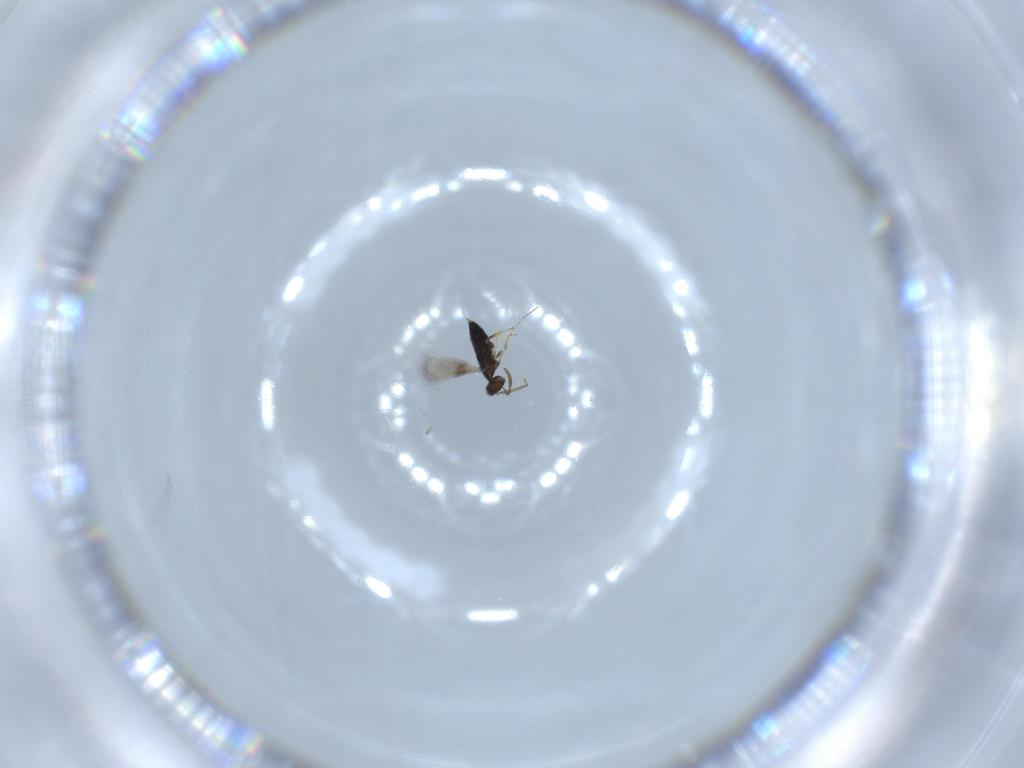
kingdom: Animalia
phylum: Arthropoda
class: Insecta
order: Hymenoptera
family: Signiphoridae
